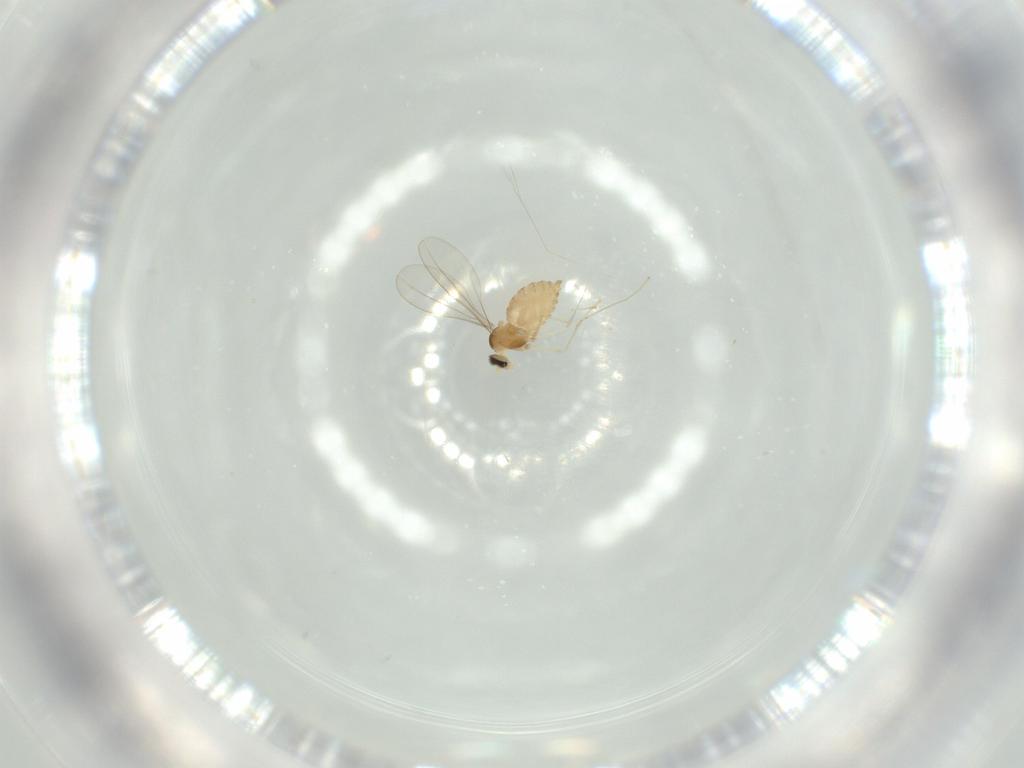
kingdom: Animalia
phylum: Arthropoda
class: Insecta
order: Diptera
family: Cecidomyiidae
